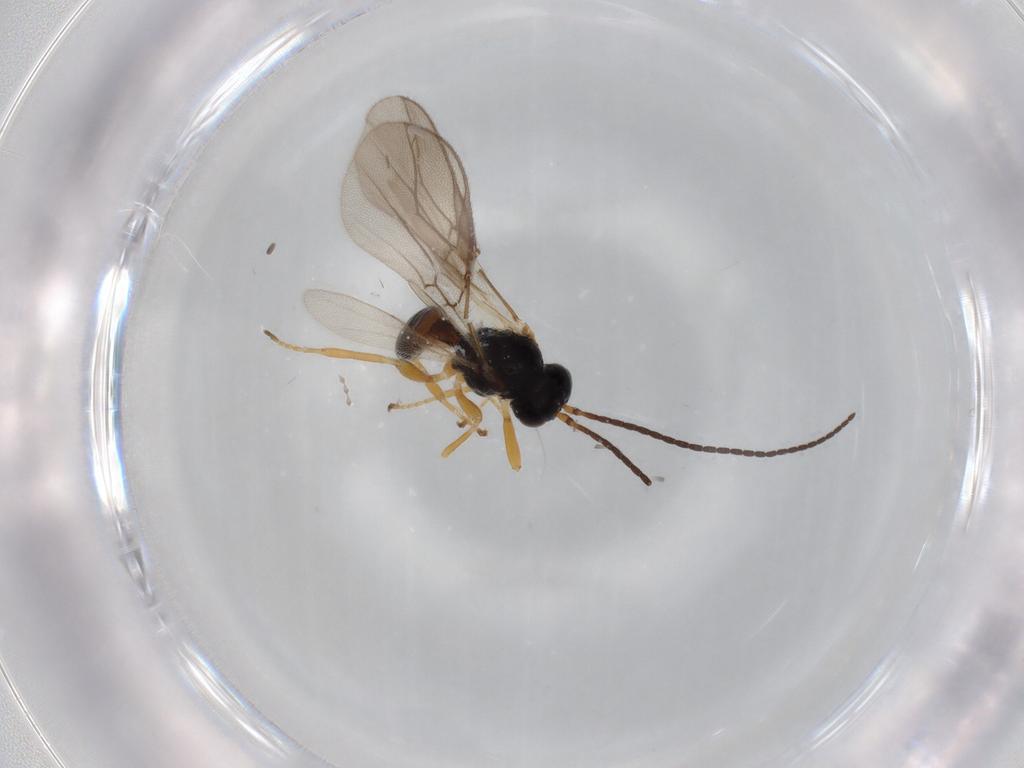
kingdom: Animalia
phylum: Arthropoda
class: Insecta
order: Hymenoptera
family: Braconidae
